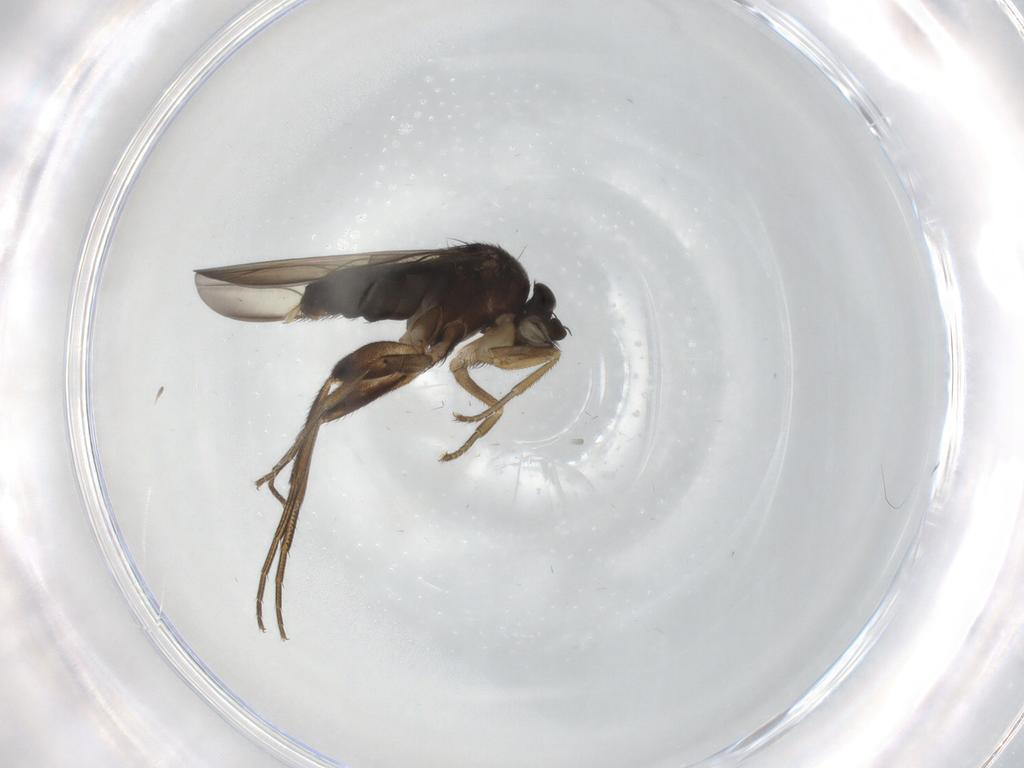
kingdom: Animalia
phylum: Arthropoda
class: Insecta
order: Diptera
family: Phoridae
